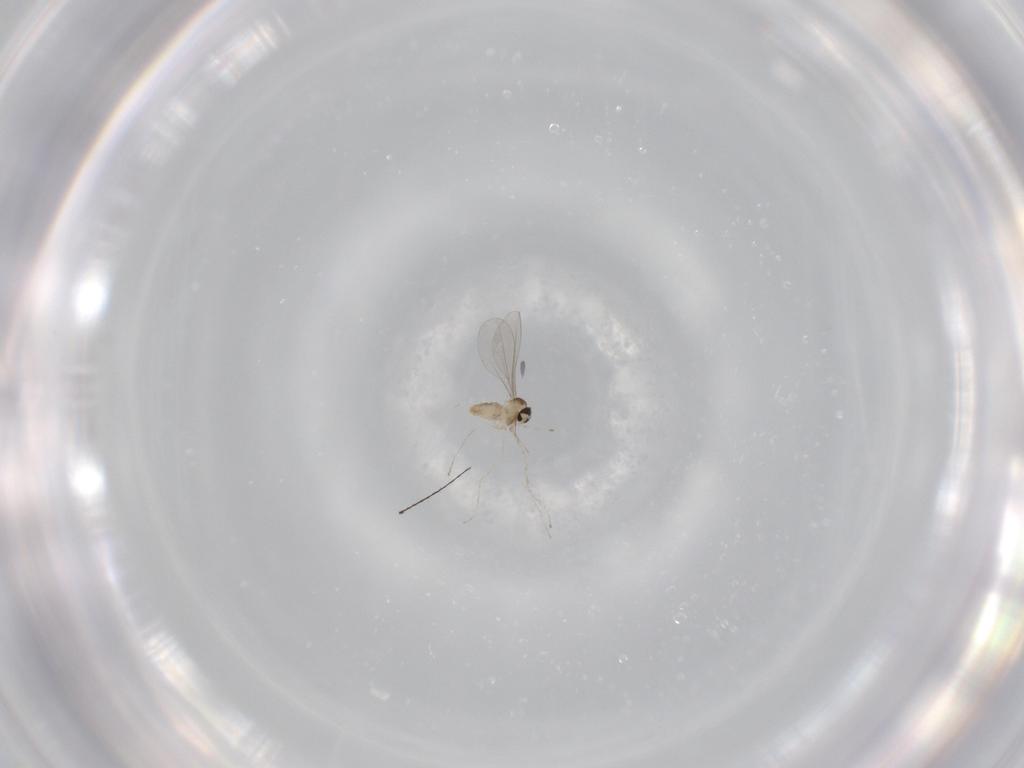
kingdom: Animalia
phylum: Arthropoda
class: Insecta
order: Diptera
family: Cecidomyiidae
